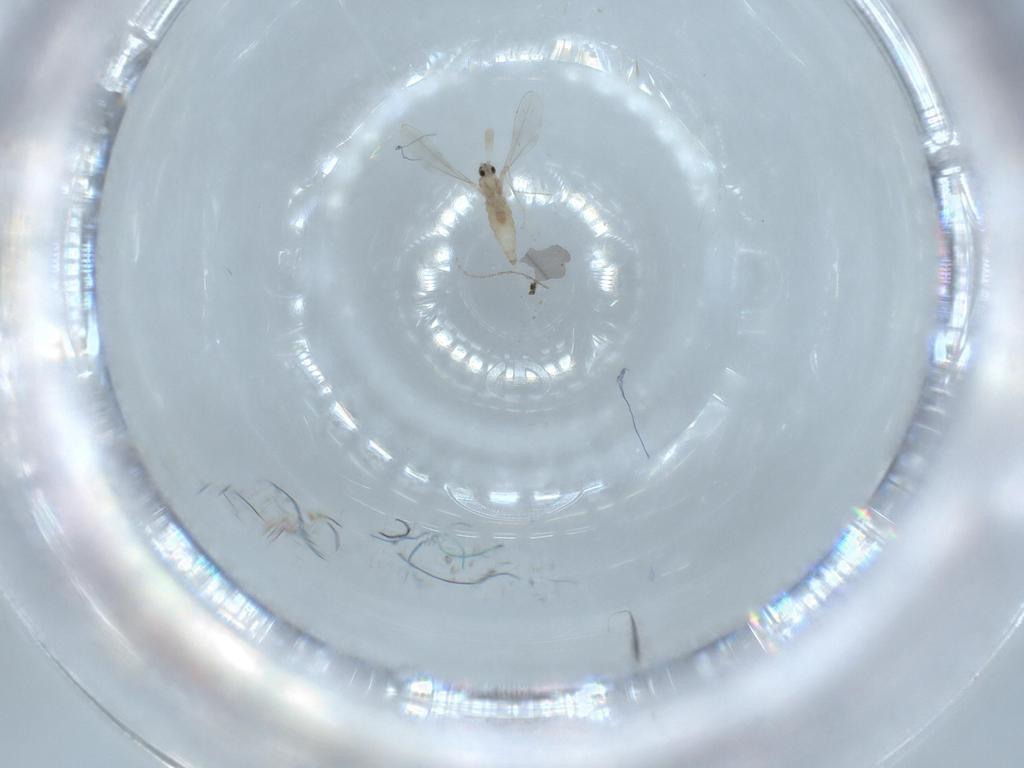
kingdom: Animalia
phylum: Arthropoda
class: Insecta
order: Diptera
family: Cecidomyiidae
